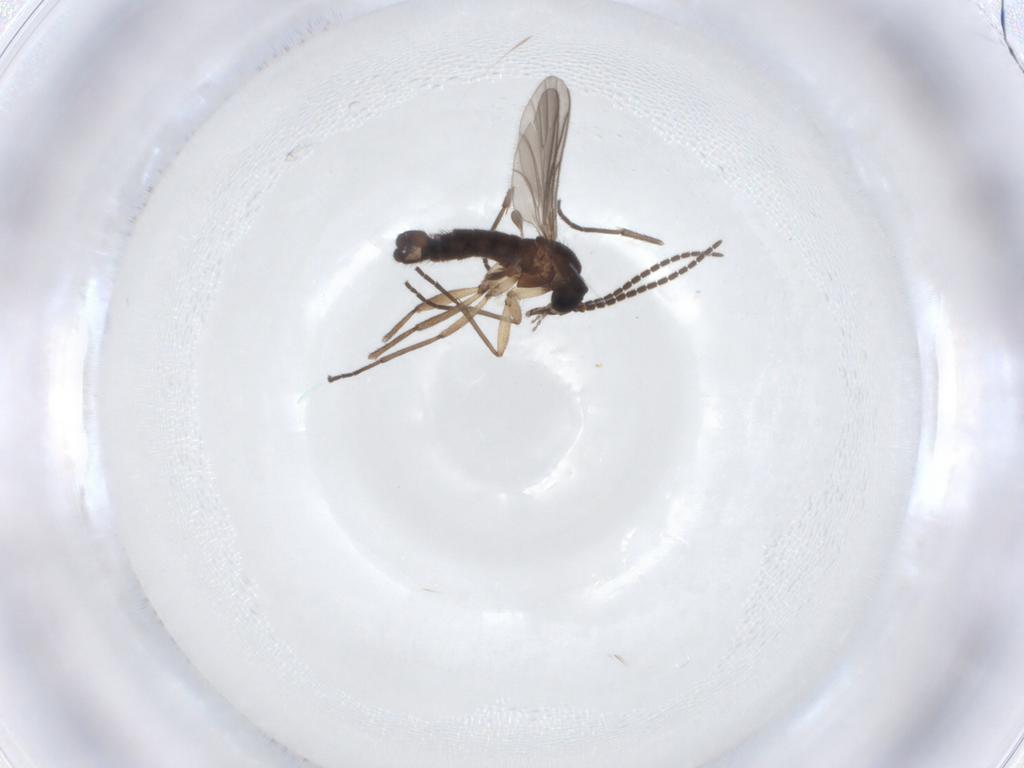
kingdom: Animalia
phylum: Arthropoda
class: Insecta
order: Diptera
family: Sciaridae
